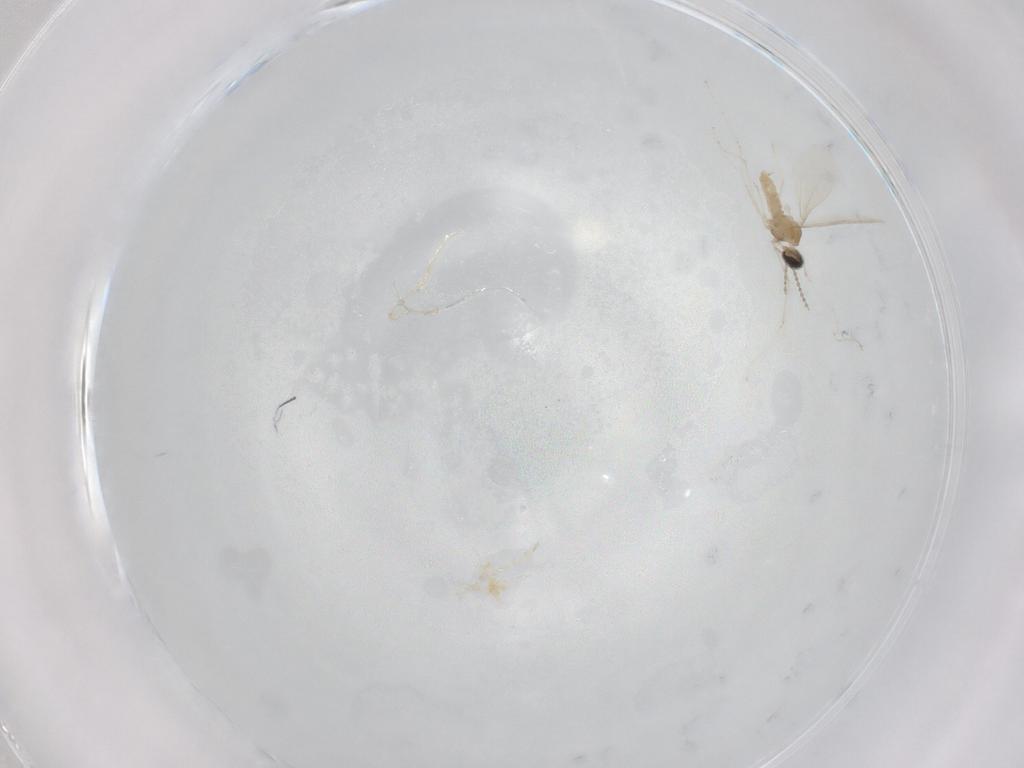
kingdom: Animalia
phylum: Arthropoda
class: Insecta
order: Diptera
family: Cecidomyiidae
